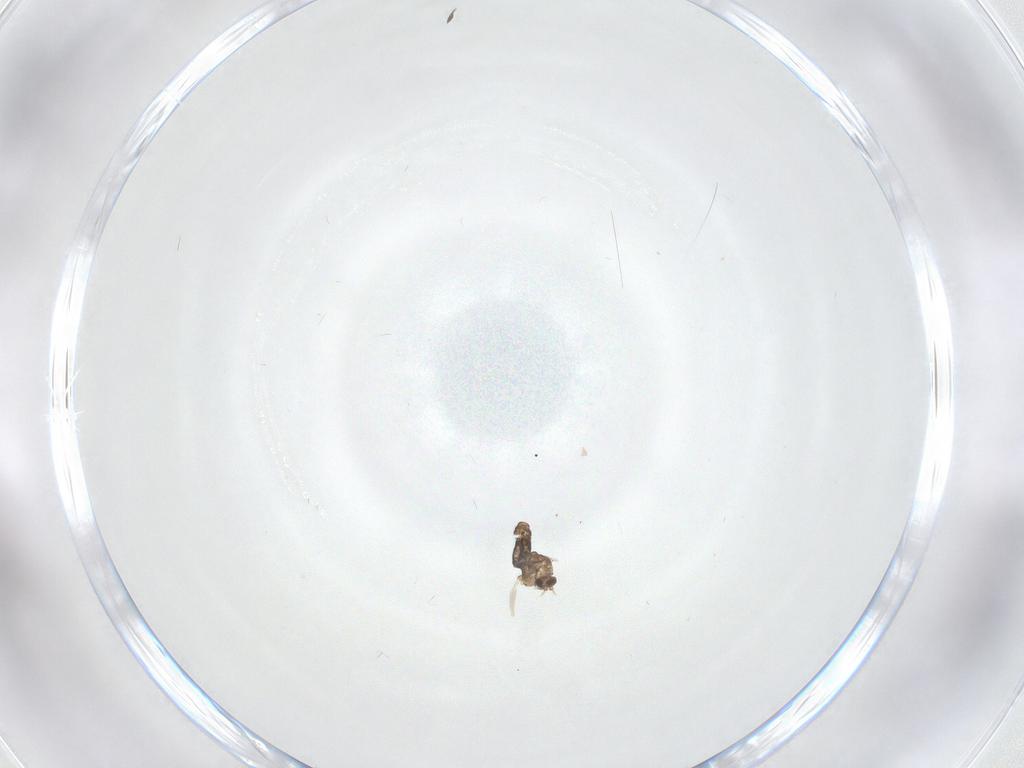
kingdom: Animalia
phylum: Arthropoda
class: Insecta
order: Diptera
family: Chironomidae
